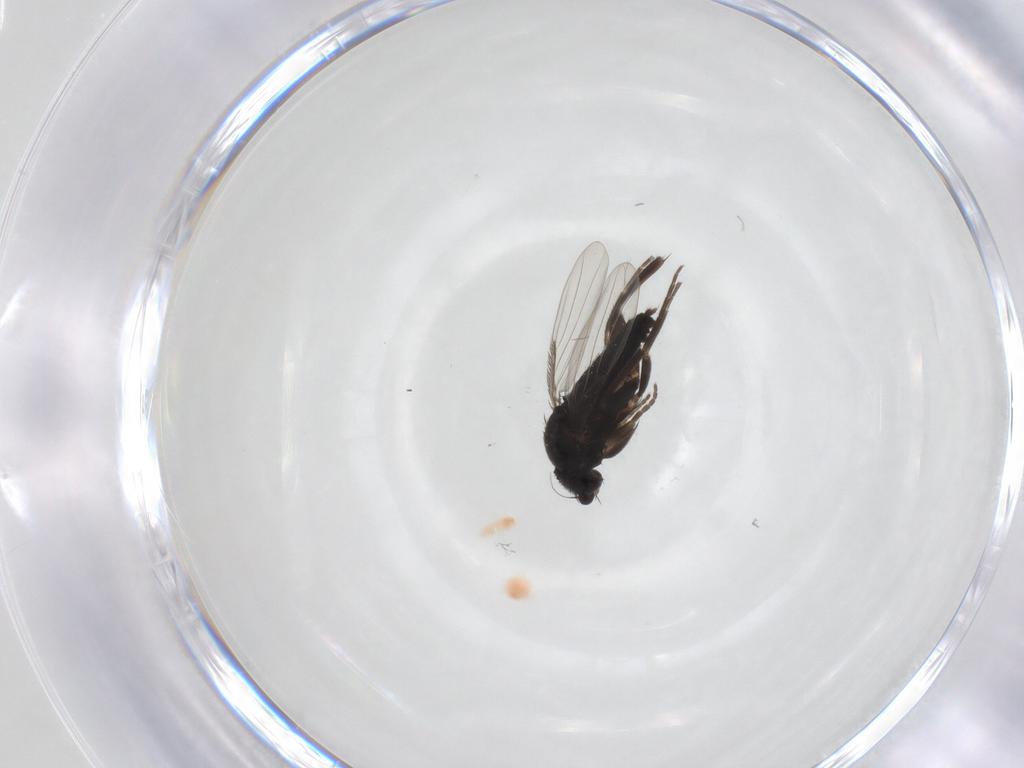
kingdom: Animalia
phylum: Arthropoda
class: Insecta
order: Diptera
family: Phoridae
